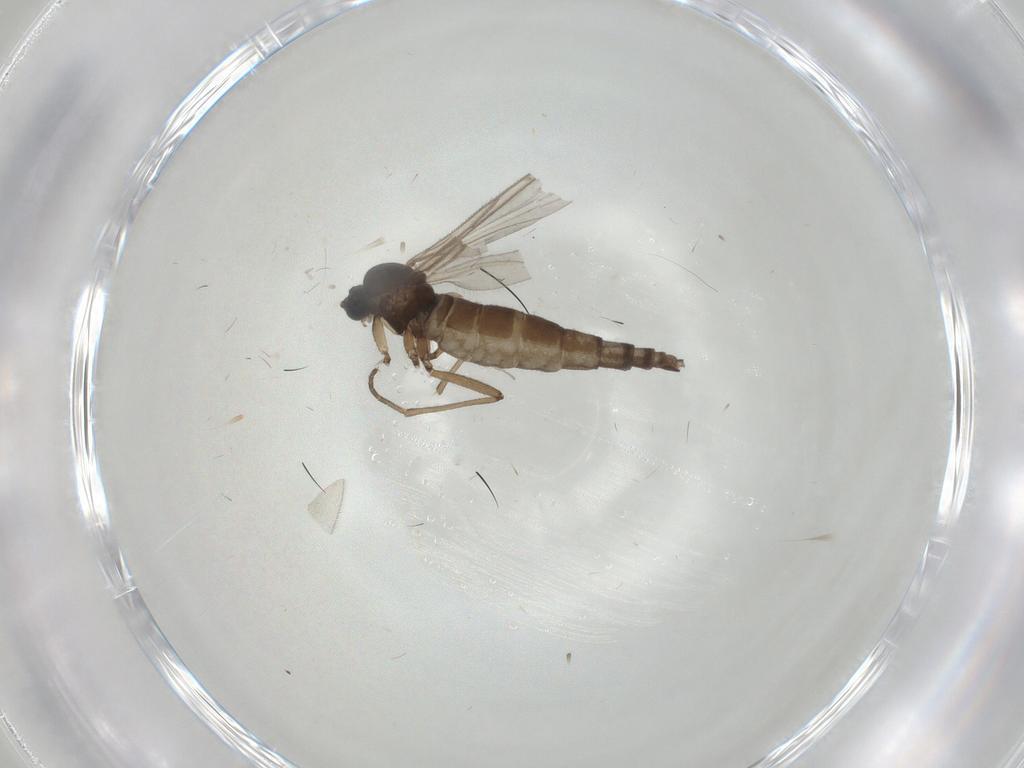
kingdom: Animalia
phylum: Arthropoda
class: Insecta
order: Diptera
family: Sciaridae
